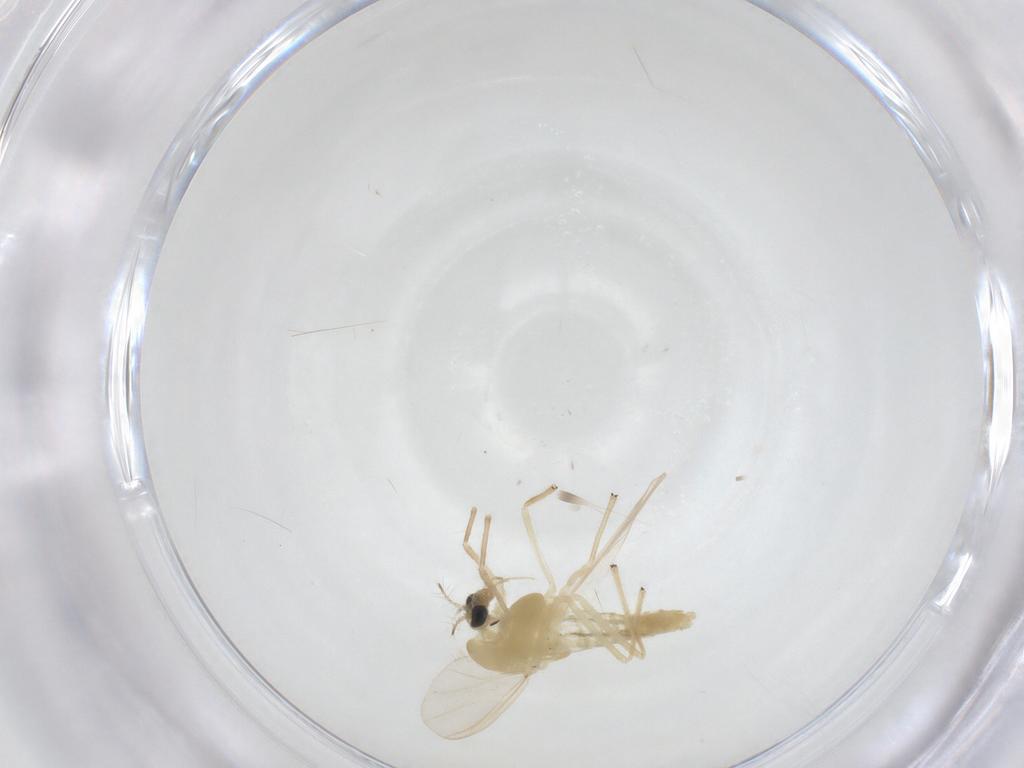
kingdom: Animalia
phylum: Arthropoda
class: Insecta
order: Diptera
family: Chironomidae
